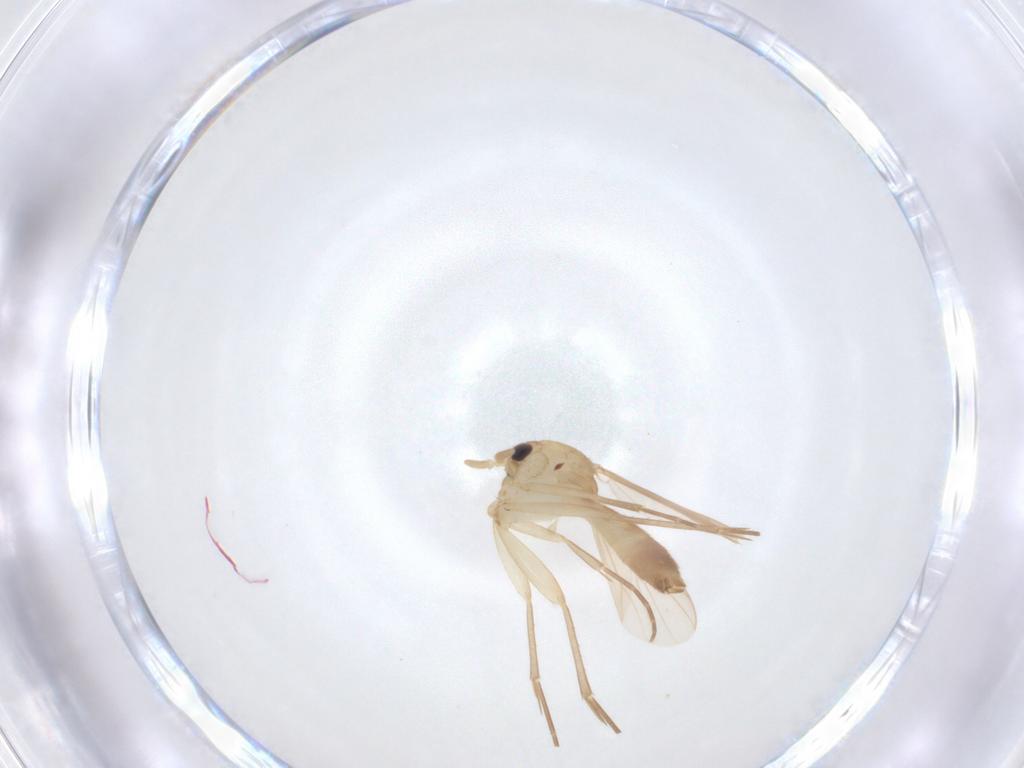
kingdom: Animalia
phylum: Arthropoda
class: Insecta
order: Diptera
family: Mycetophilidae
